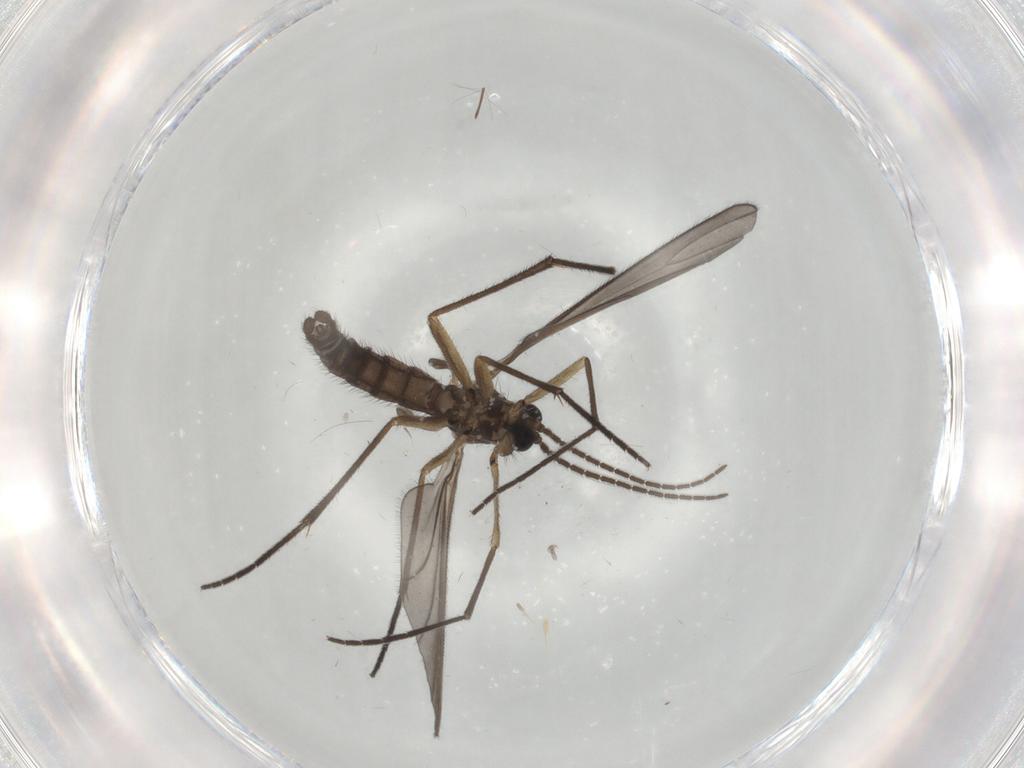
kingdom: Animalia
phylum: Arthropoda
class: Insecta
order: Diptera
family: Sciaridae
